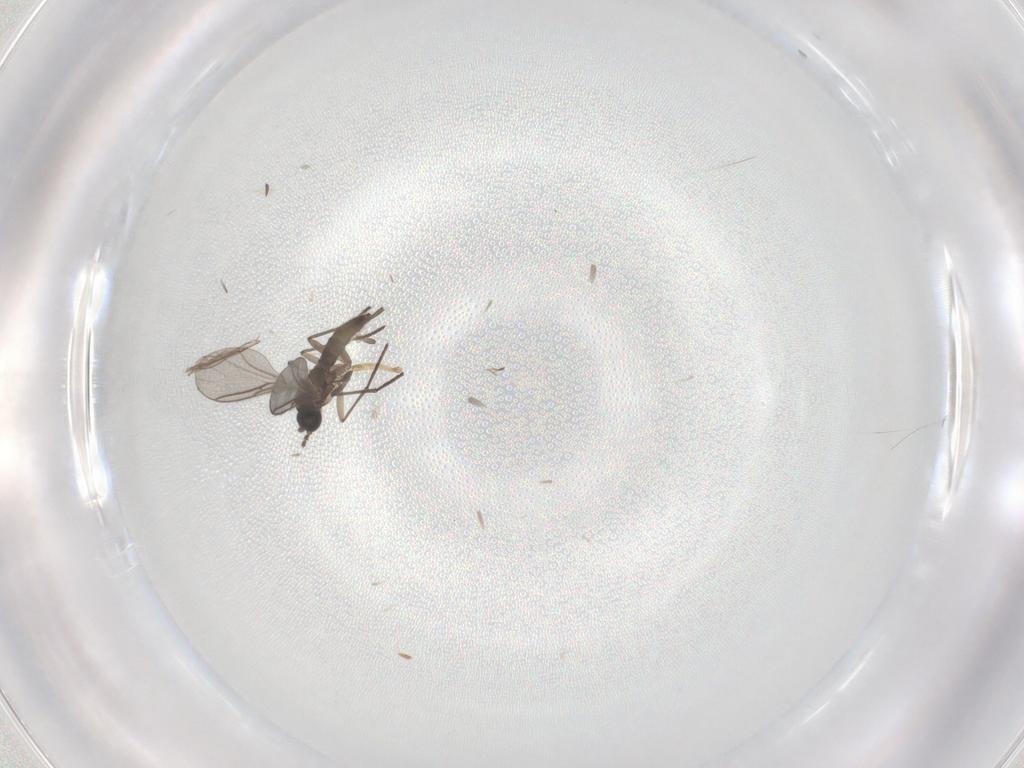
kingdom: Animalia
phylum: Arthropoda
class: Insecta
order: Diptera
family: Cecidomyiidae
